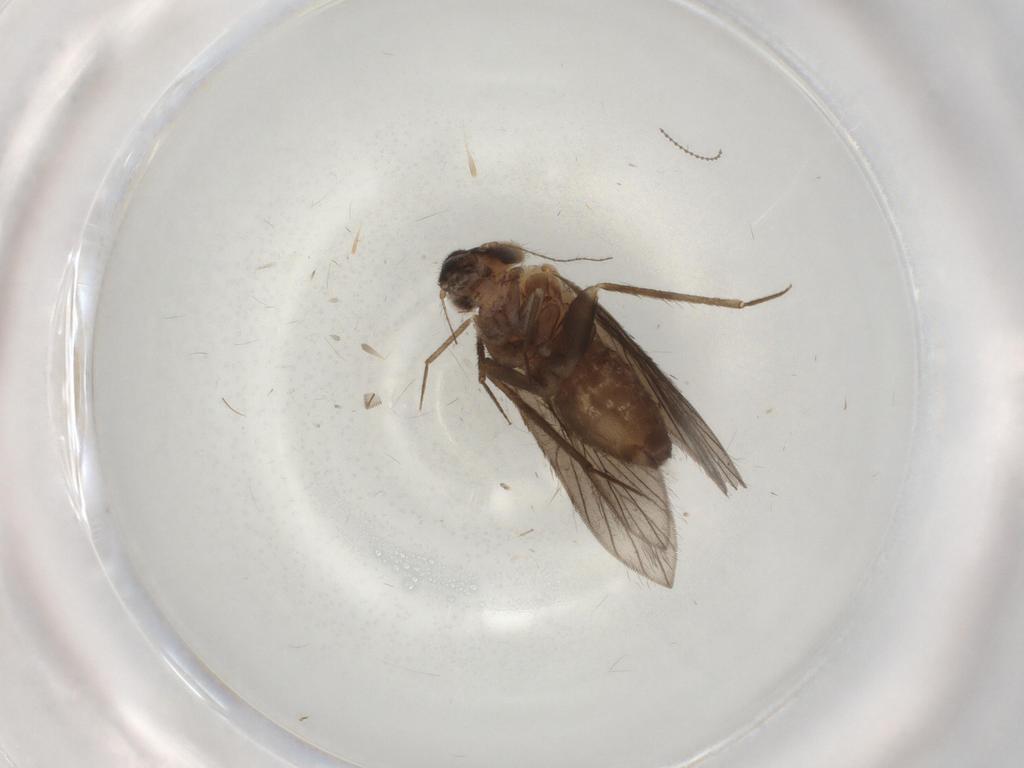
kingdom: Animalia
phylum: Arthropoda
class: Insecta
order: Psocodea
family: Lepidopsocidae
